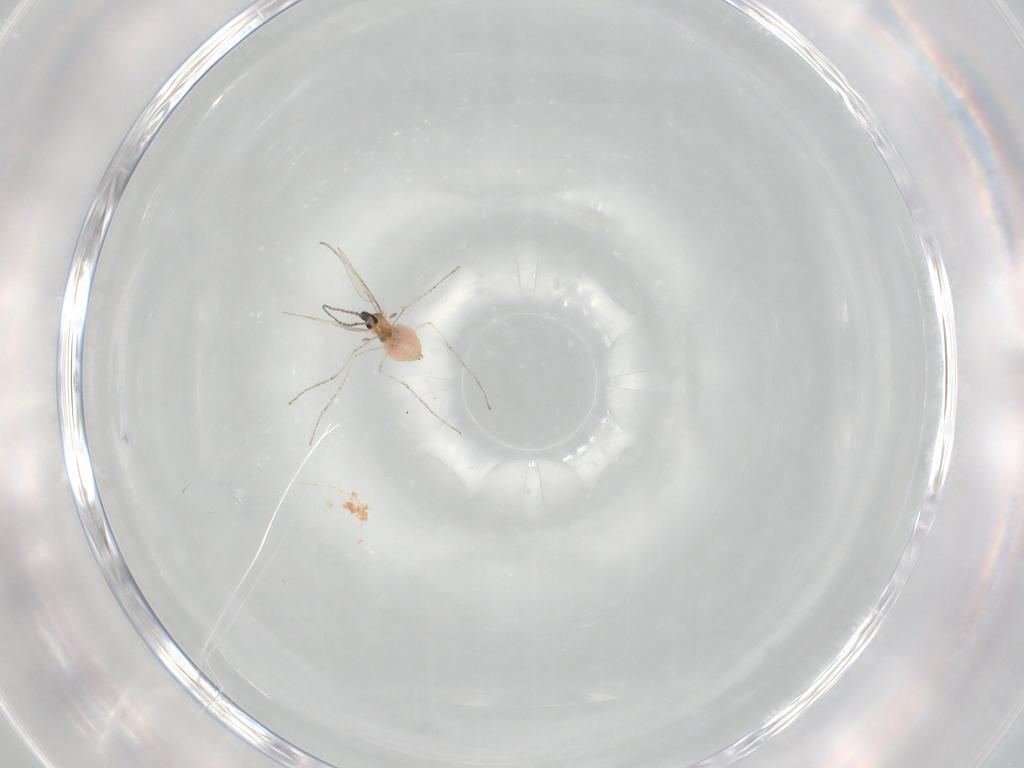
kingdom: Animalia
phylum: Arthropoda
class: Insecta
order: Diptera
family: Cecidomyiidae
